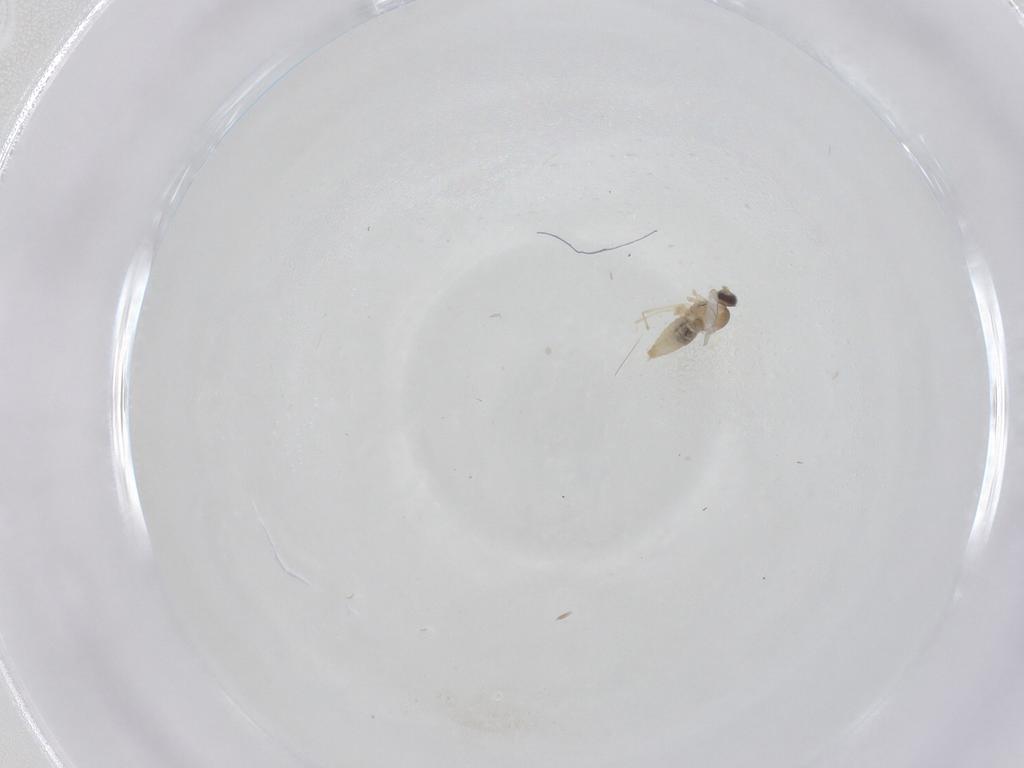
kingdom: Animalia
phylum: Arthropoda
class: Insecta
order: Diptera
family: Cecidomyiidae
